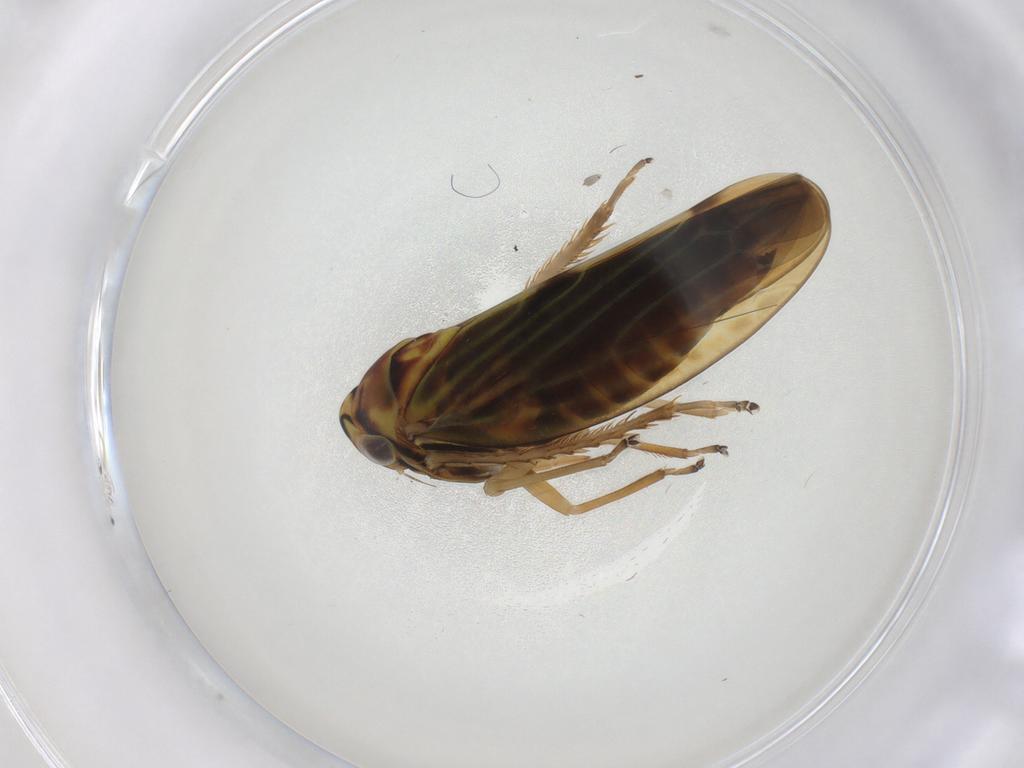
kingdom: Animalia
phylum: Arthropoda
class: Insecta
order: Hemiptera
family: Cicadellidae
